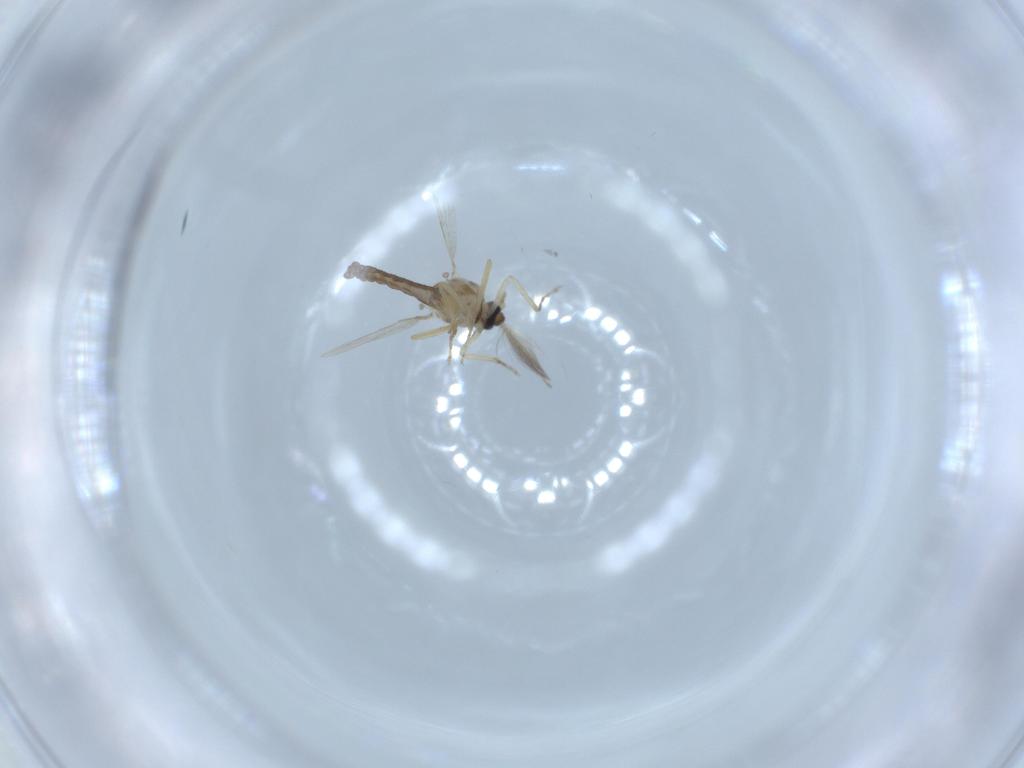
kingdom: Animalia
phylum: Arthropoda
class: Insecta
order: Diptera
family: Ceratopogonidae
